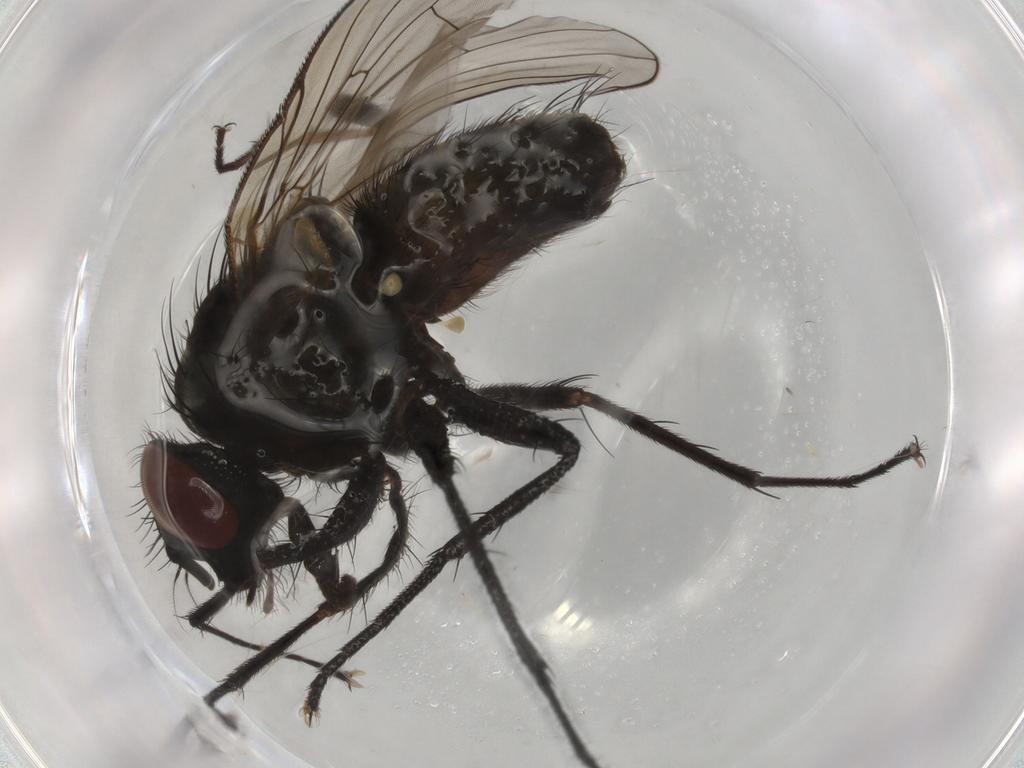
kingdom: Animalia
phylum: Arthropoda
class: Insecta
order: Diptera
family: Muscidae
